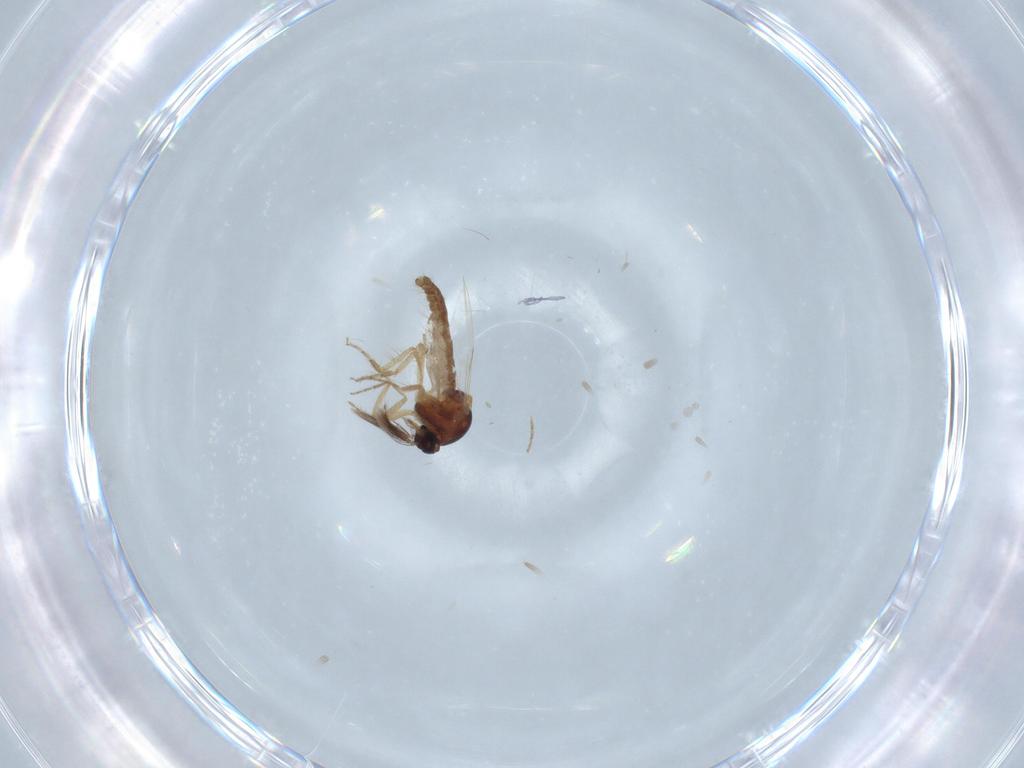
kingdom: Animalia
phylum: Arthropoda
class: Insecta
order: Diptera
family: Ceratopogonidae
